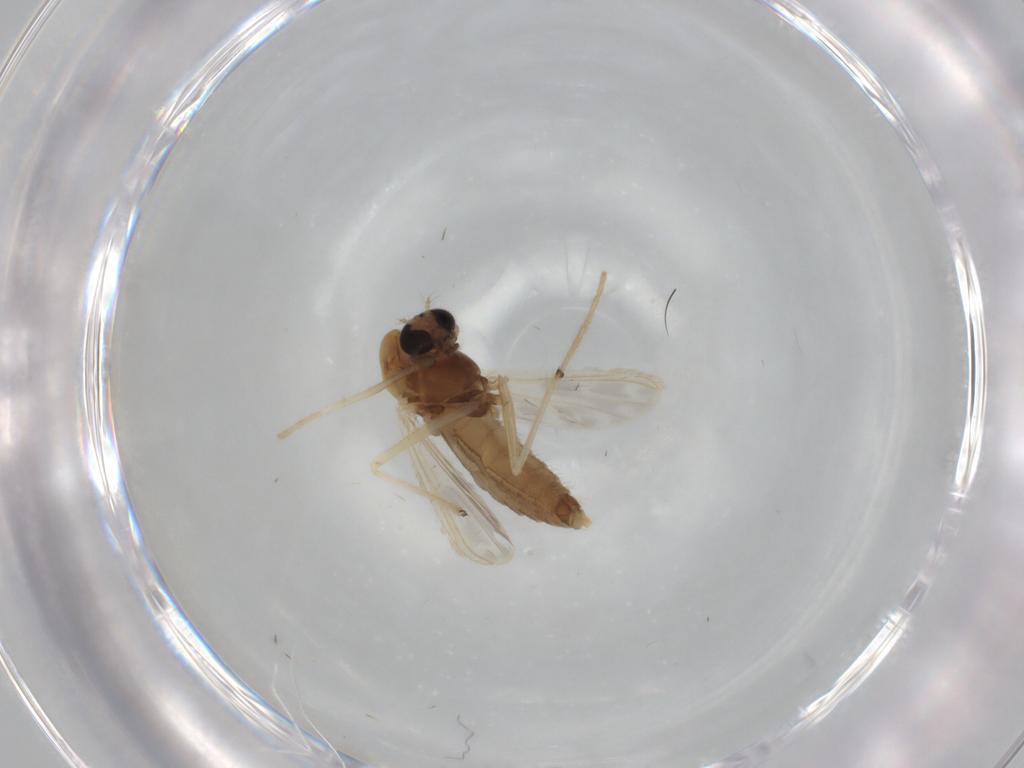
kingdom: Animalia
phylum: Arthropoda
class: Insecta
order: Diptera
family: Chironomidae
